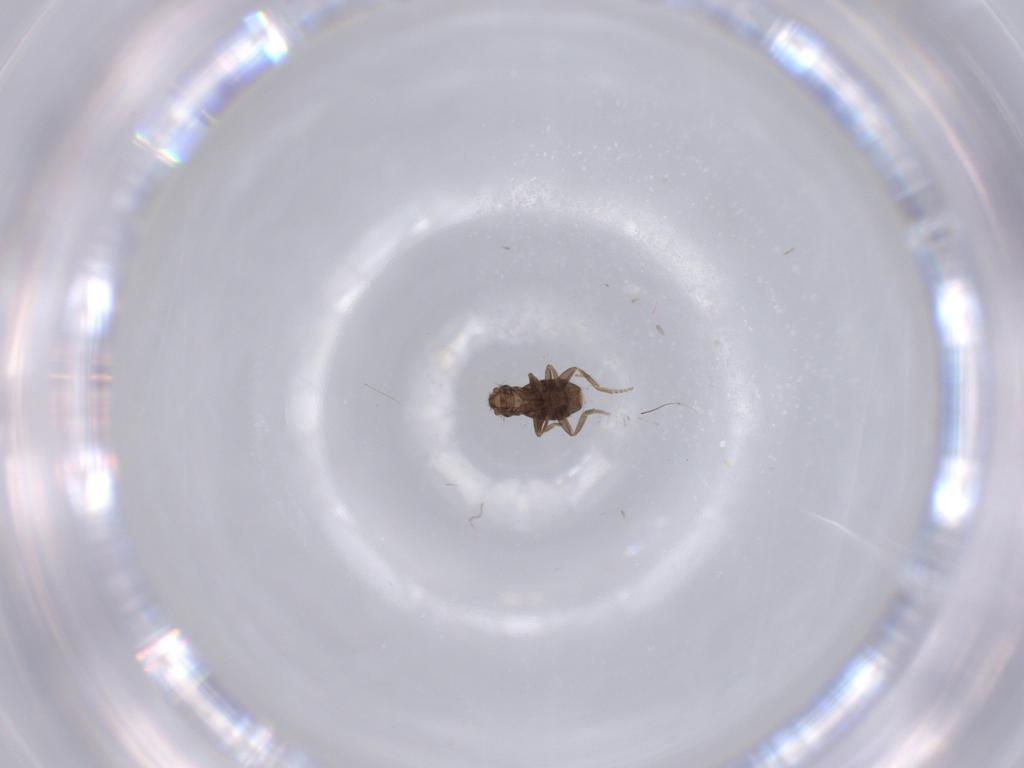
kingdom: Animalia
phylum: Arthropoda
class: Insecta
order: Diptera
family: Phoridae
